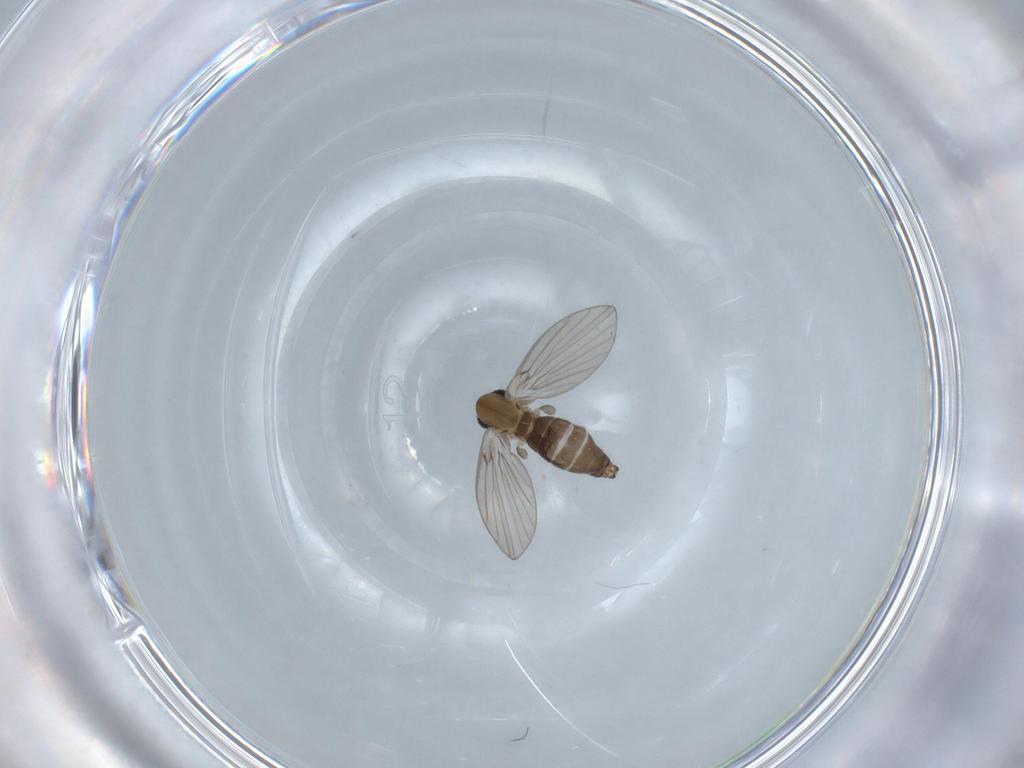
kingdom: Animalia
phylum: Arthropoda
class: Insecta
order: Diptera
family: Psychodidae
